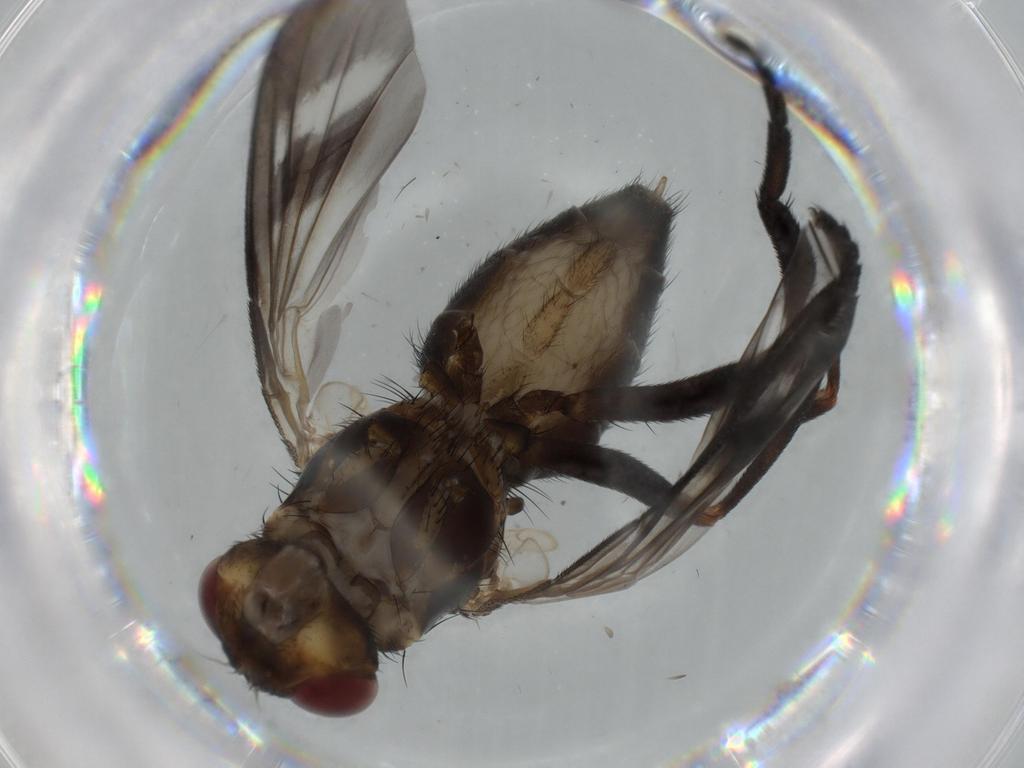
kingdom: Animalia
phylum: Arthropoda
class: Insecta
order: Diptera
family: Calliphoridae
